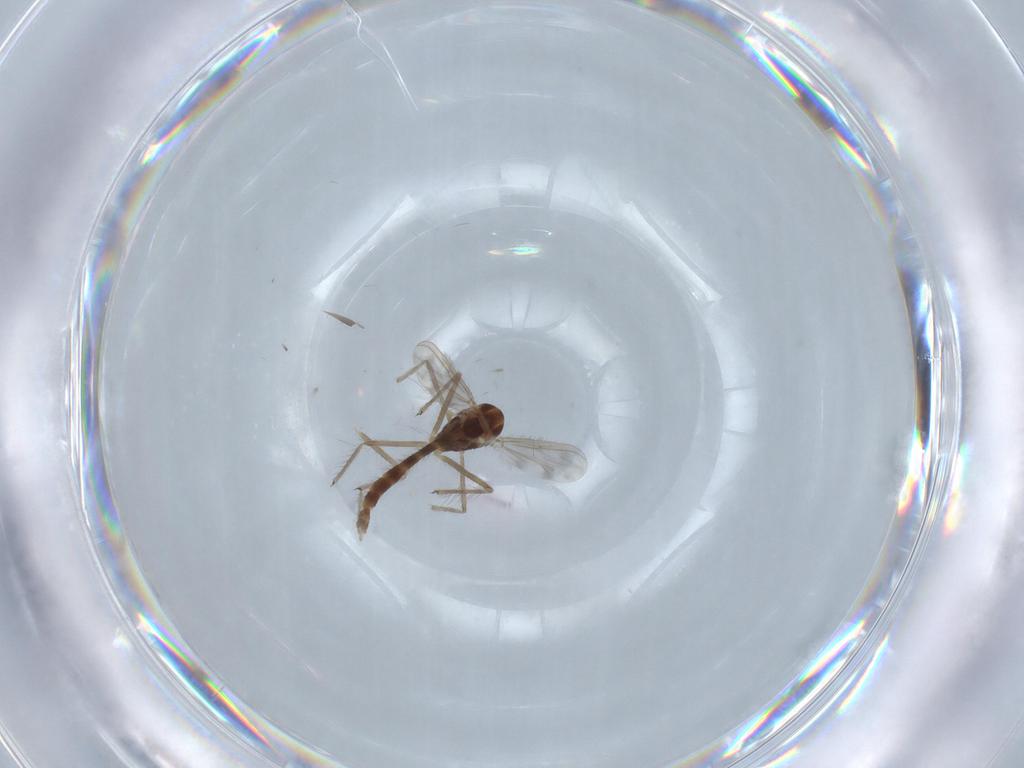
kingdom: Animalia
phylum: Arthropoda
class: Insecta
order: Diptera
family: Chironomidae
